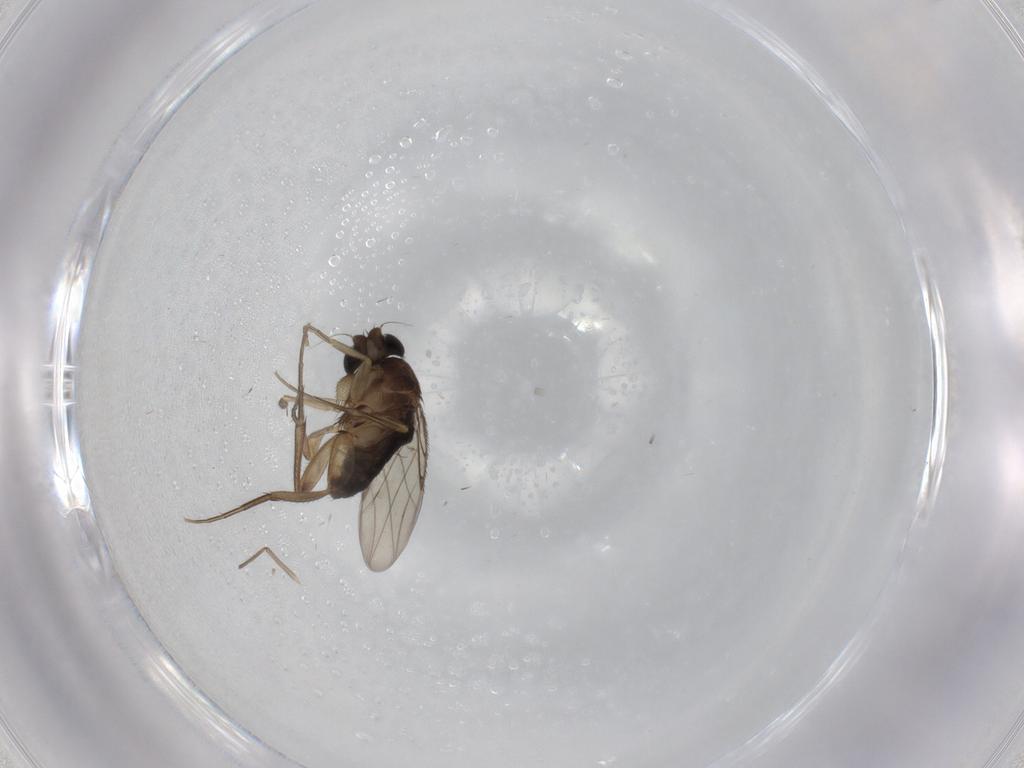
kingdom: Animalia
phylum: Arthropoda
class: Insecta
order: Diptera
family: Phoridae
